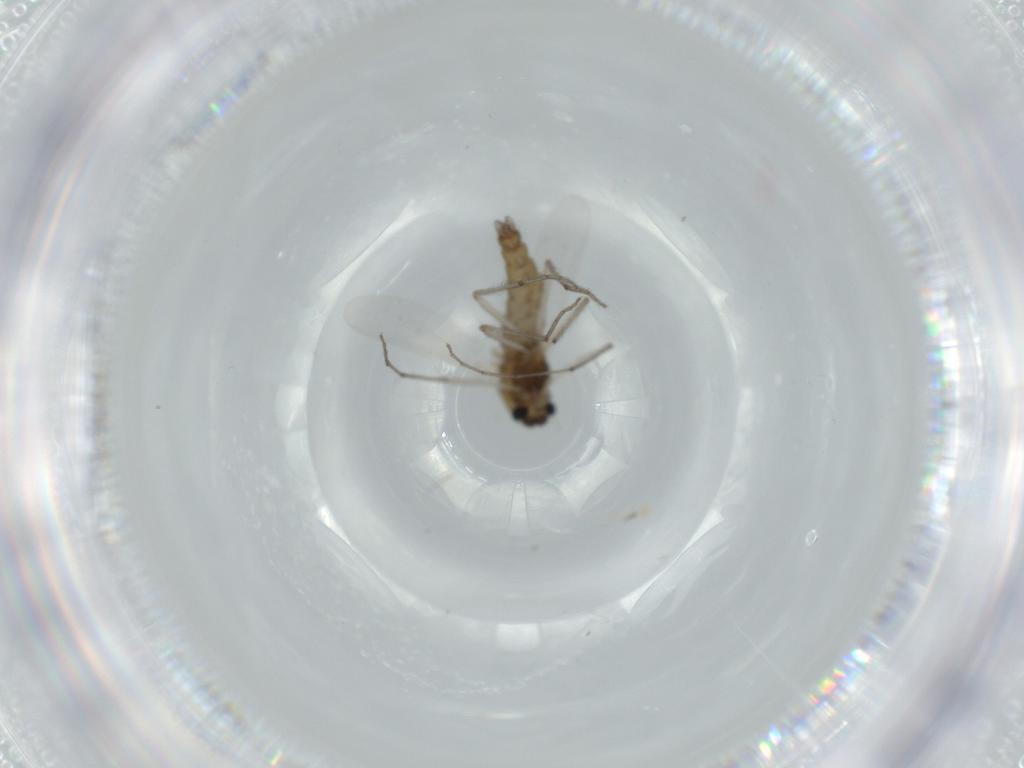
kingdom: Animalia
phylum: Arthropoda
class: Insecta
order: Diptera
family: Chironomidae
